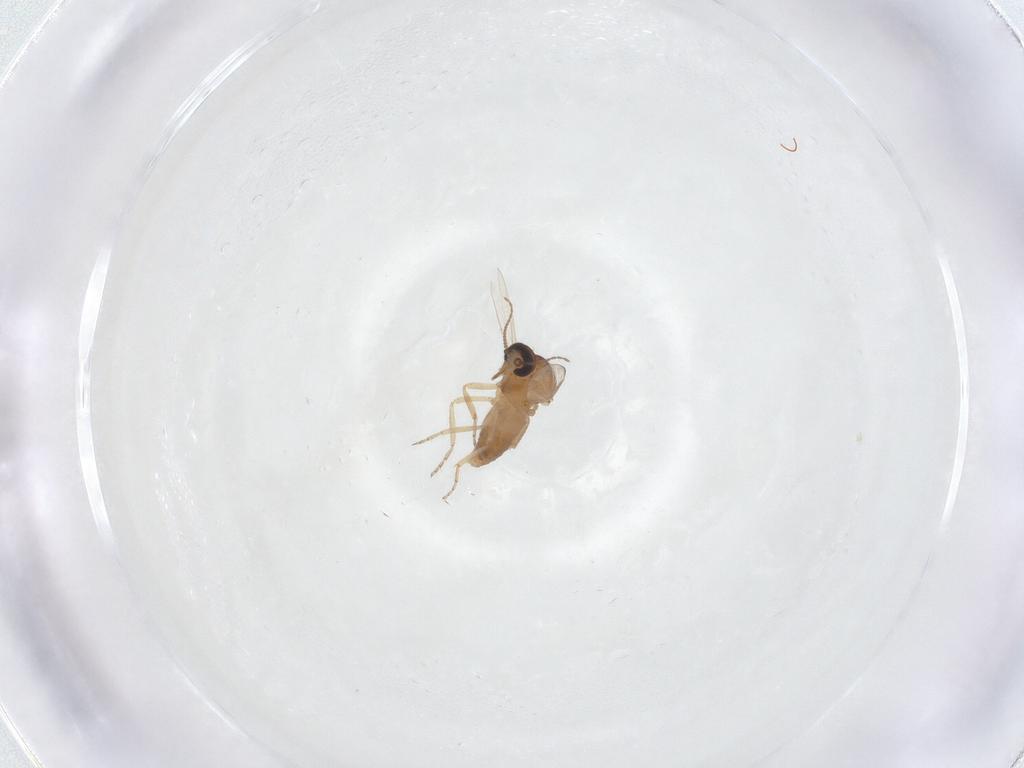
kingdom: Animalia
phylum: Arthropoda
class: Insecta
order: Diptera
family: Ceratopogonidae
